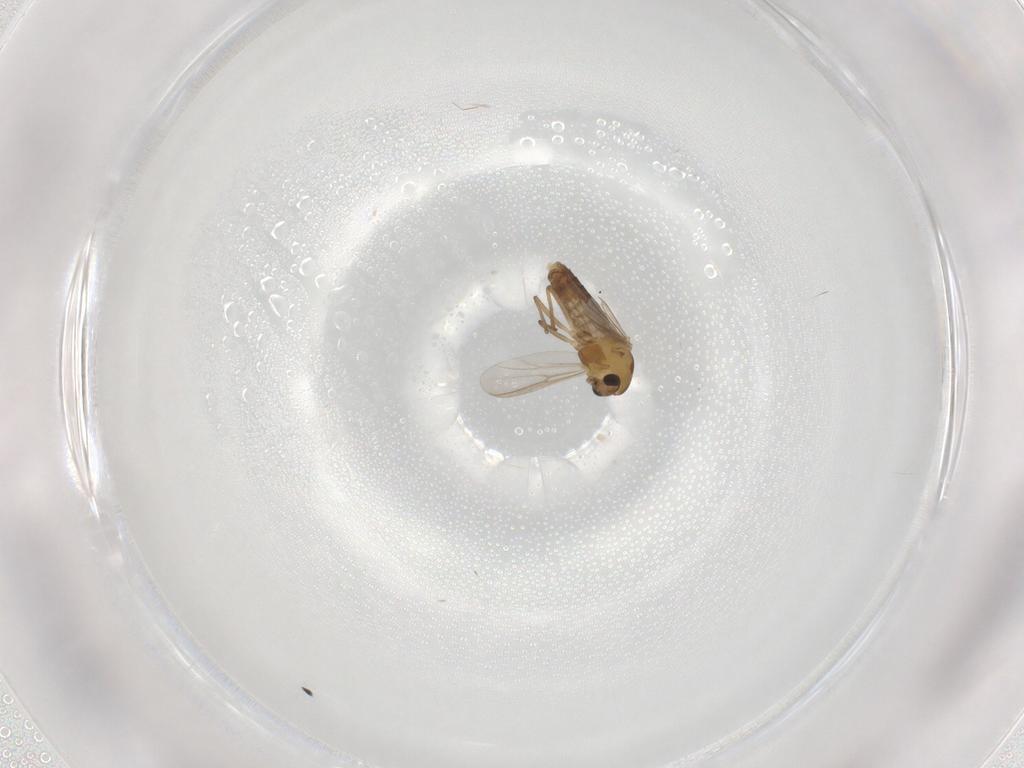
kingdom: Animalia
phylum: Arthropoda
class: Insecta
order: Diptera
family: Chironomidae
